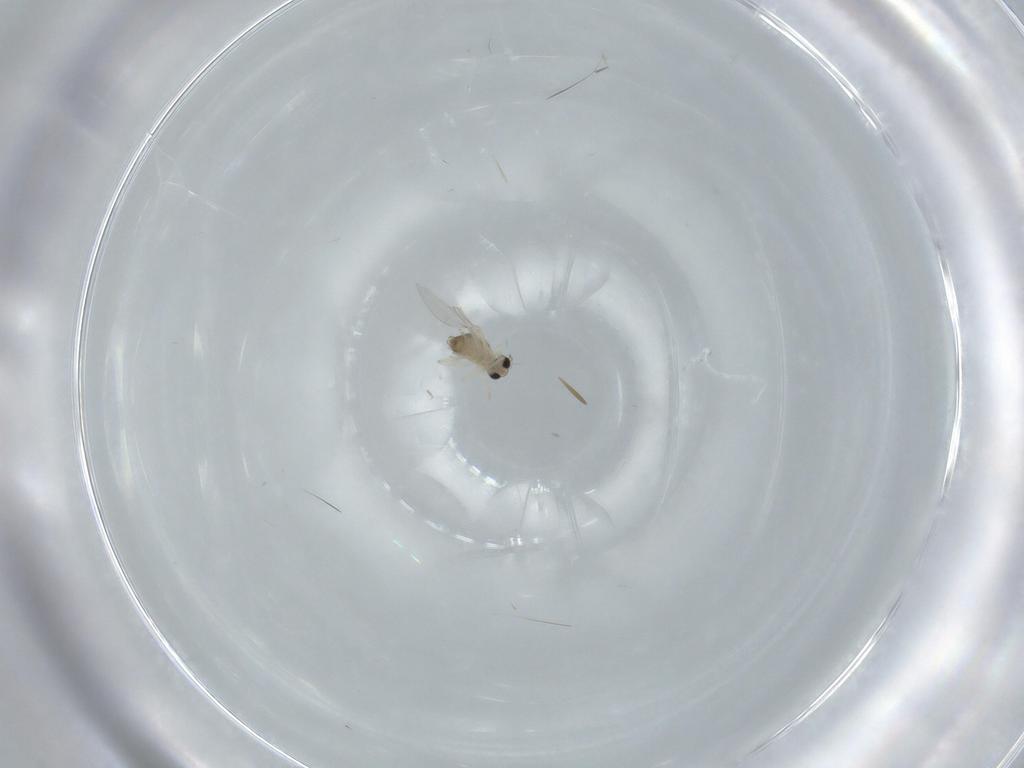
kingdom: Animalia
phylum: Arthropoda
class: Insecta
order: Diptera
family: Cecidomyiidae
